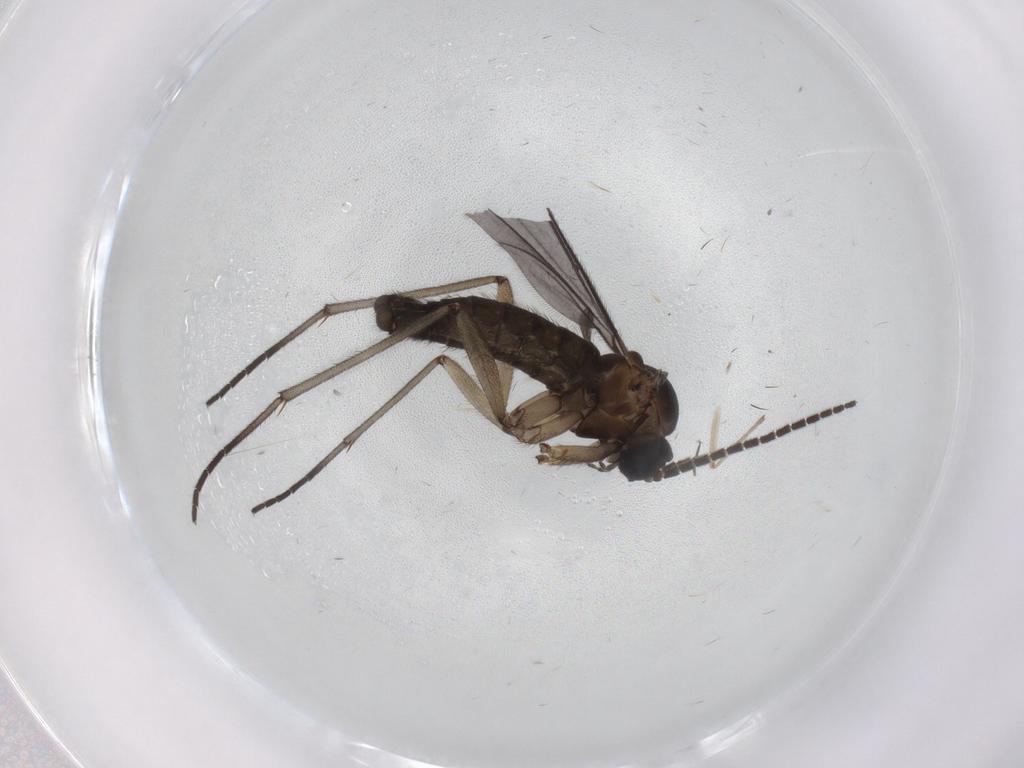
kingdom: Animalia
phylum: Arthropoda
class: Insecta
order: Diptera
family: Sciaridae
